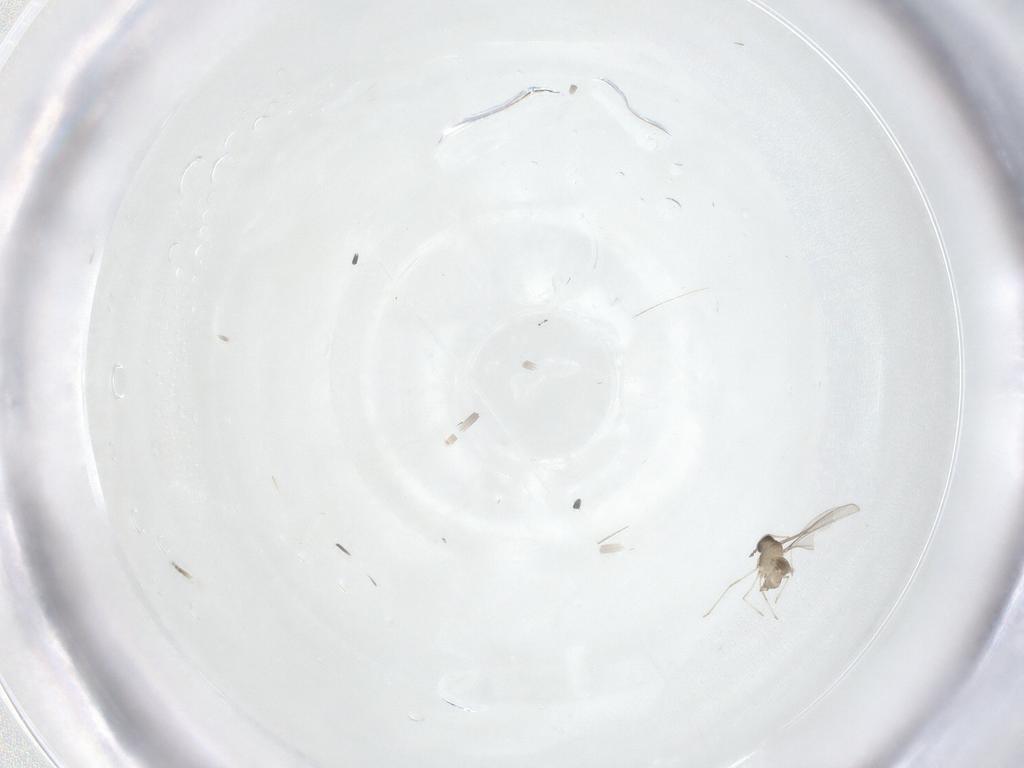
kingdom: Animalia
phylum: Arthropoda
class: Insecta
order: Diptera
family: Cecidomyiidae
